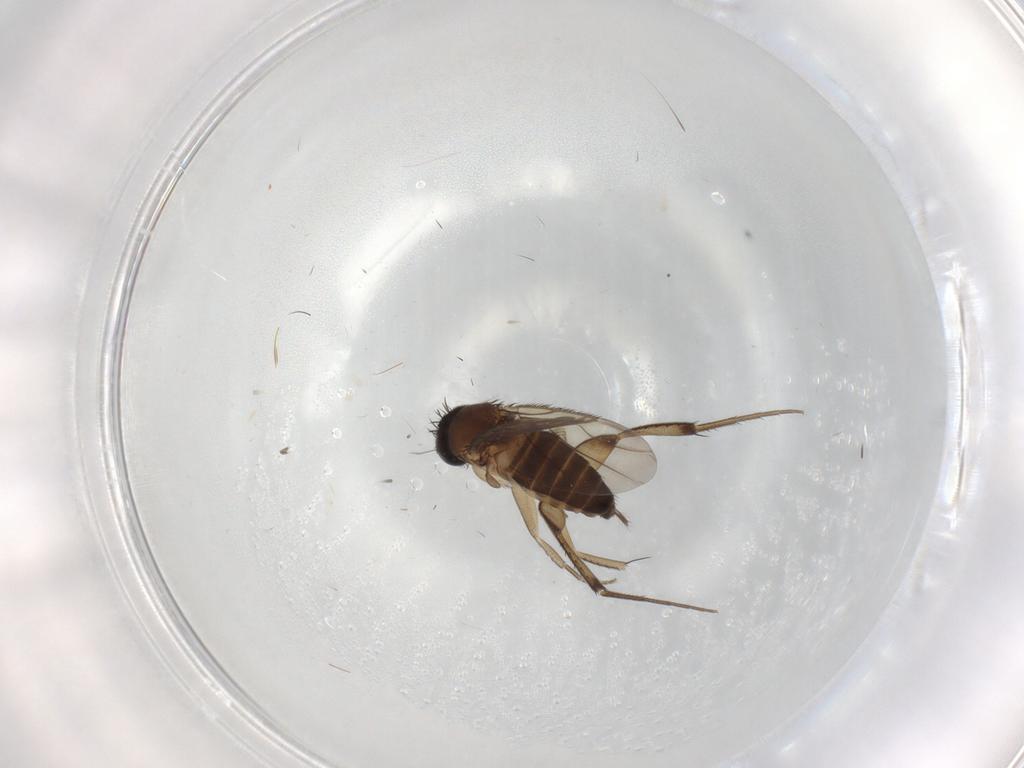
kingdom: Animalia
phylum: Arthropoda
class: Insecta
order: Diptera
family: Phoridae
